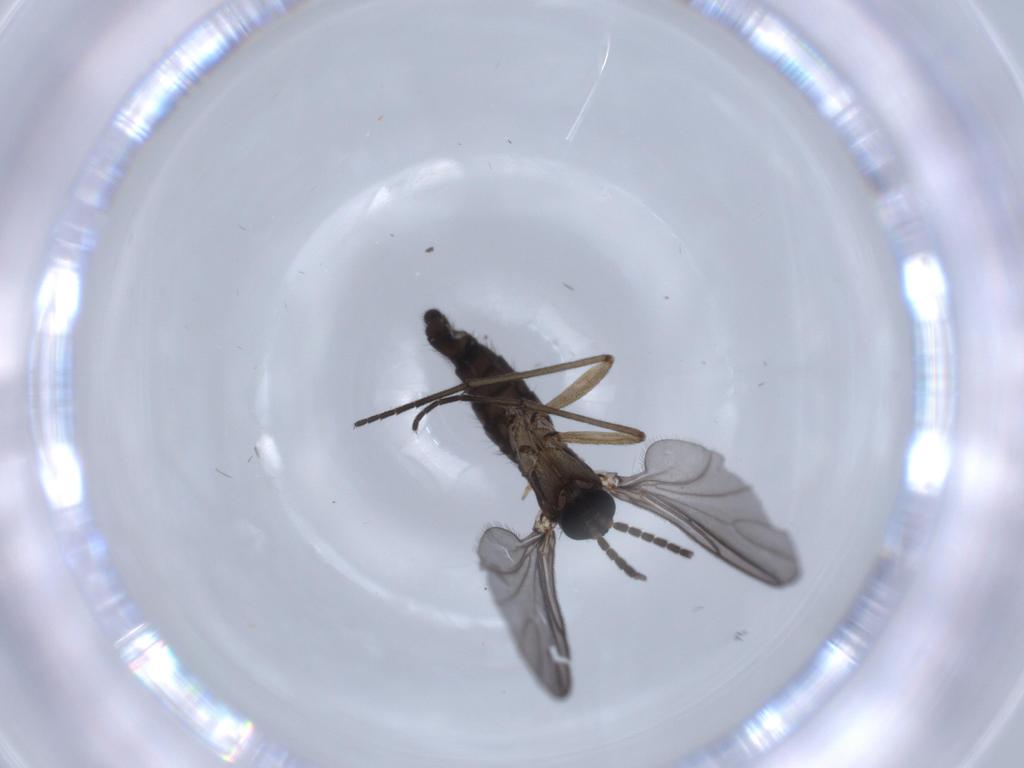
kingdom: Animalia
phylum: Arthropoda
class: Insecta
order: Diptera
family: Sciaridae
